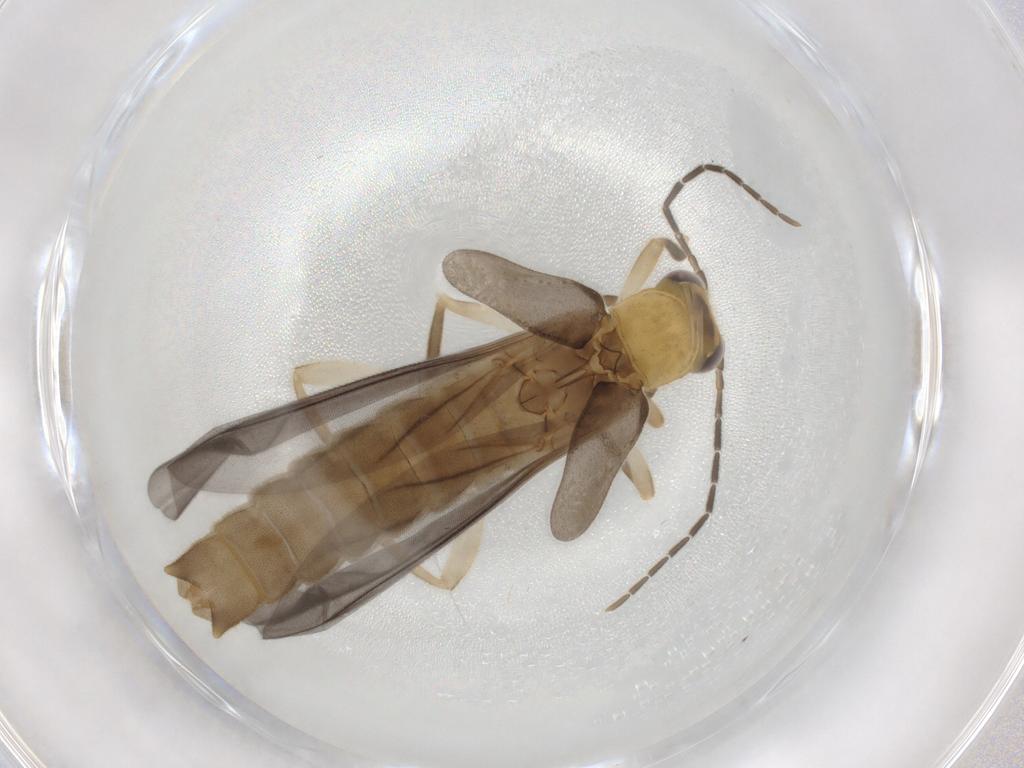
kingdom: Animalia
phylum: Arthropoda
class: Insecta
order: Coleoptera
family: Cantharidae
